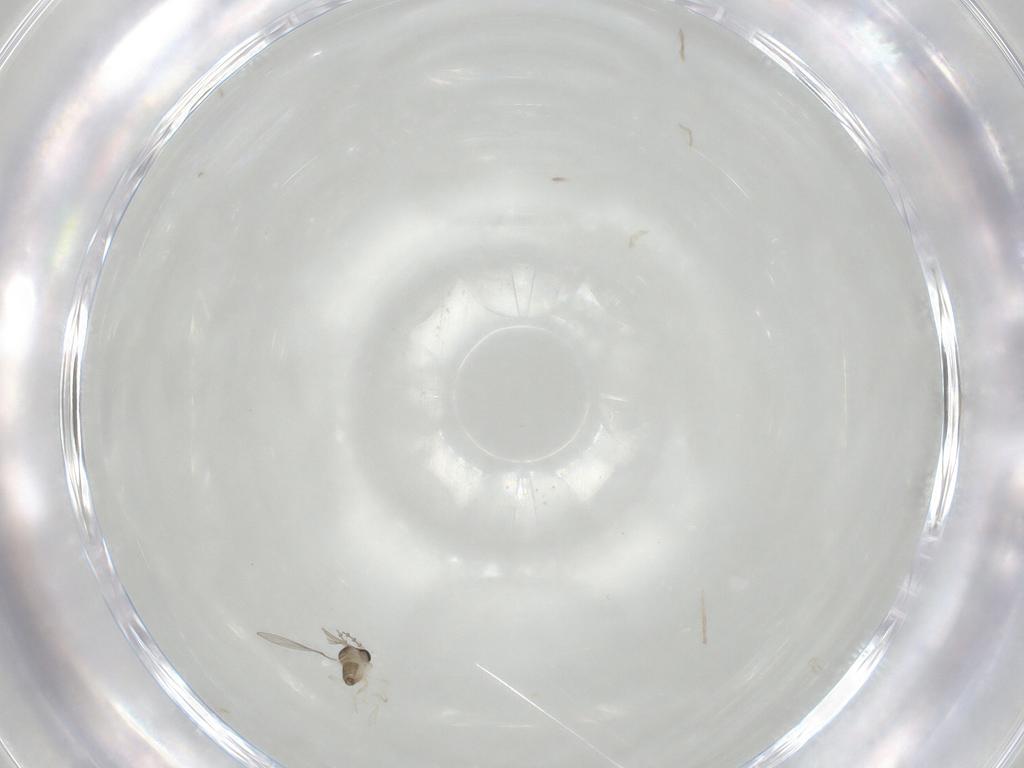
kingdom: Animalia
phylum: Arthropoda
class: Insecta
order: Diptera
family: Cecidomyiidae
